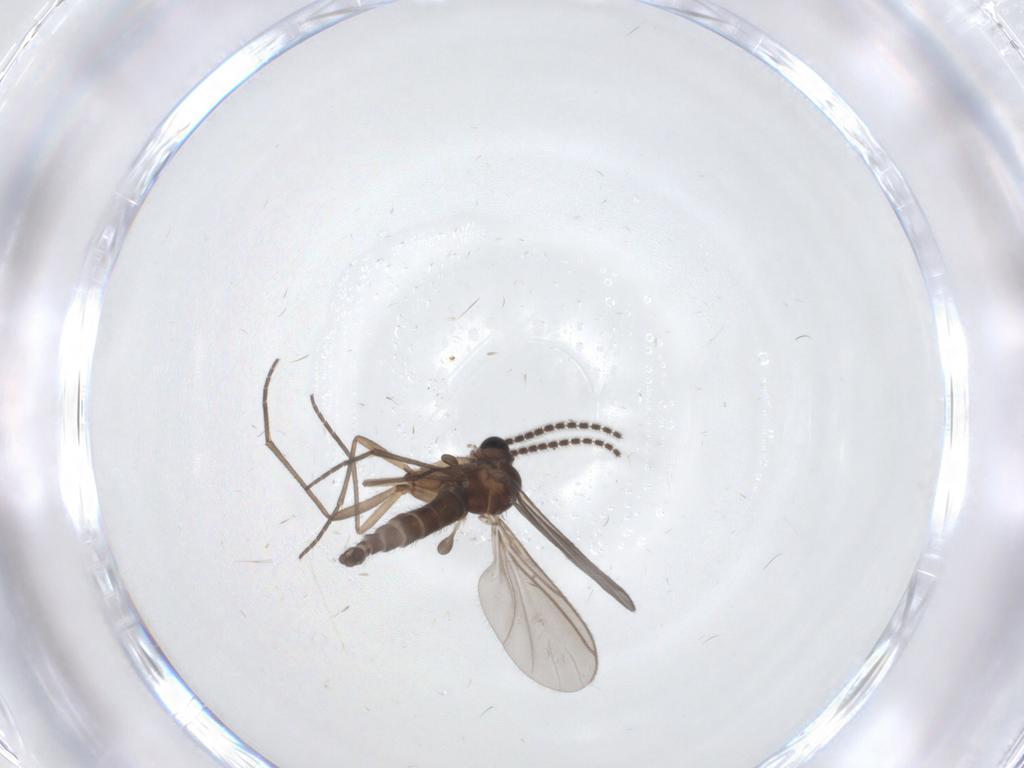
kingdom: Animalia
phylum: Arthropoda
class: Insecta
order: Diptera
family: Sciaridae
